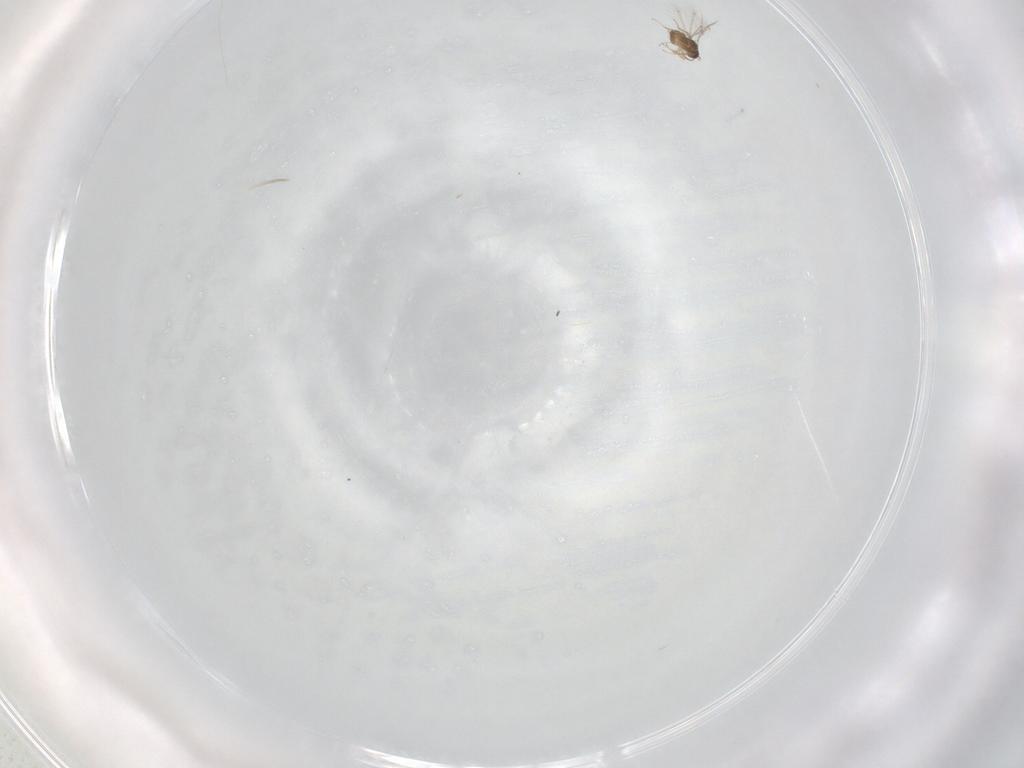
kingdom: Animalia
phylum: Arthropoda
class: Insecta
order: Hymenoptera
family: Mymaridae
